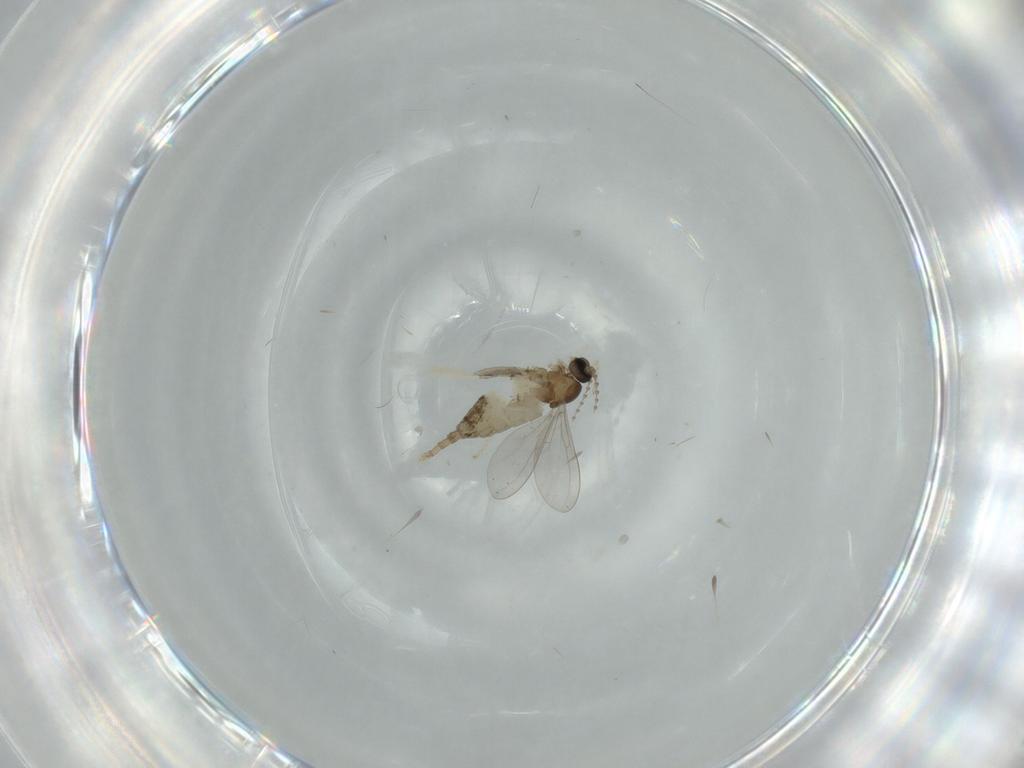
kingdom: Animalia
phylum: Arthropoda
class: Insecta
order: Diptera
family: Cecidomyiidae
